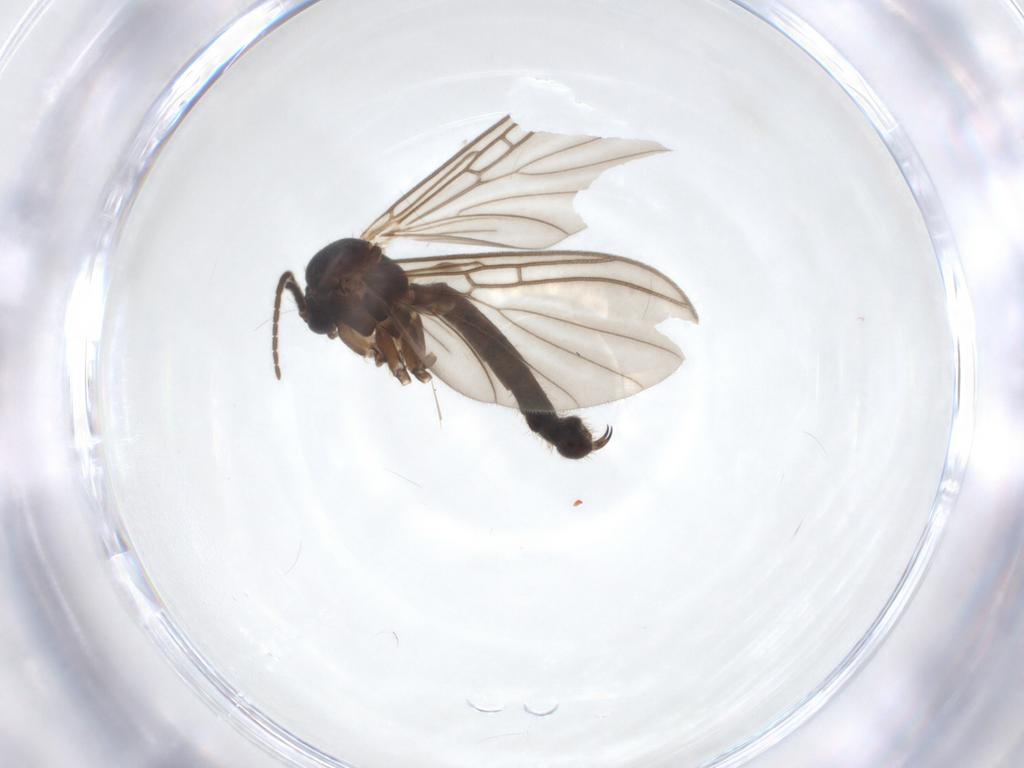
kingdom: Animalia
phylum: Arthropoda
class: Insecta
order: Diptera
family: Mycetophilidae
